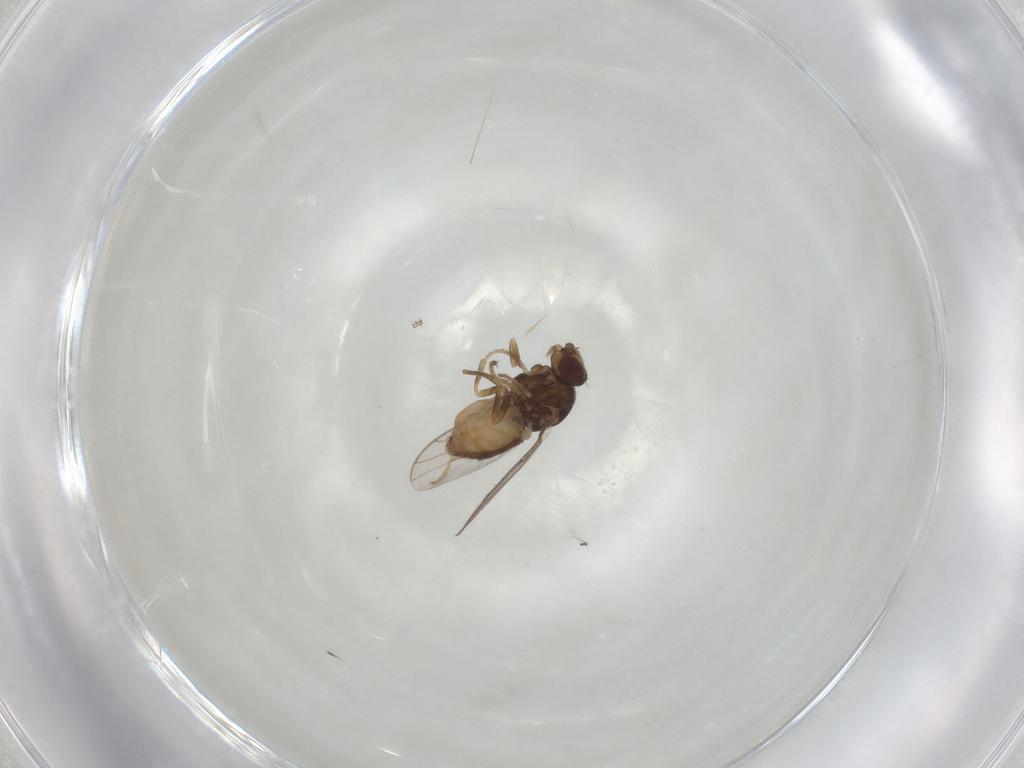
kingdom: Animalia
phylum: Arthropoda
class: Insecta
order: Diptera
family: Chloropidae
